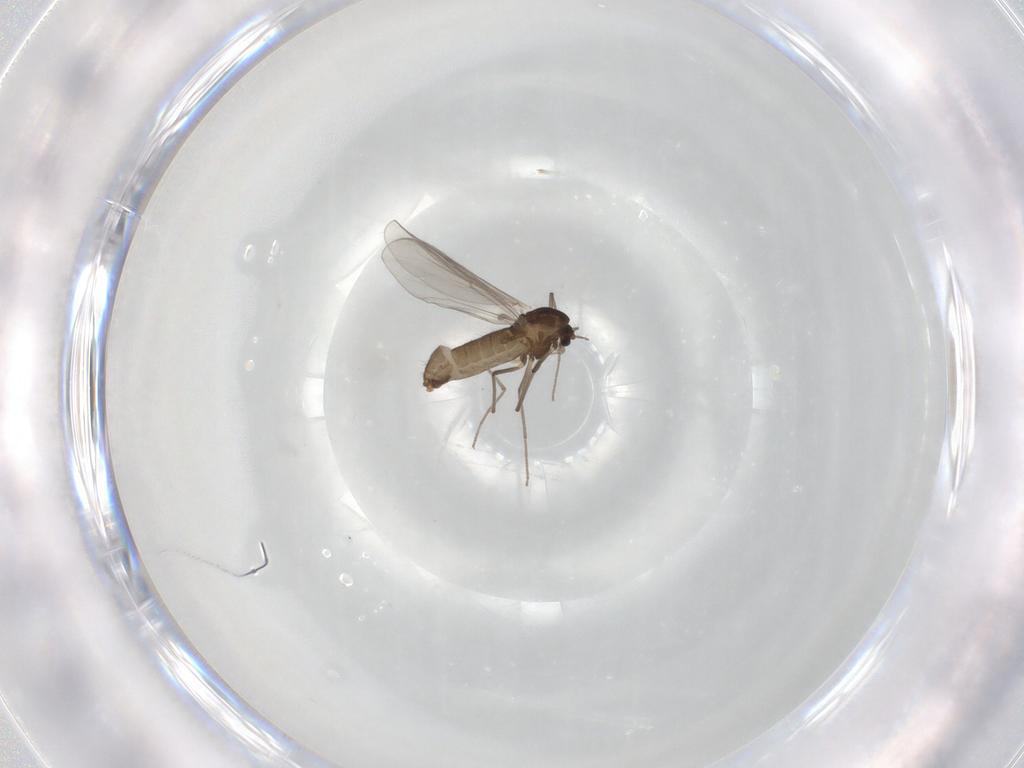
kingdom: Animalia
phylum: Arthropoda
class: Insecta
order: Diptera
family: Chironomidae
